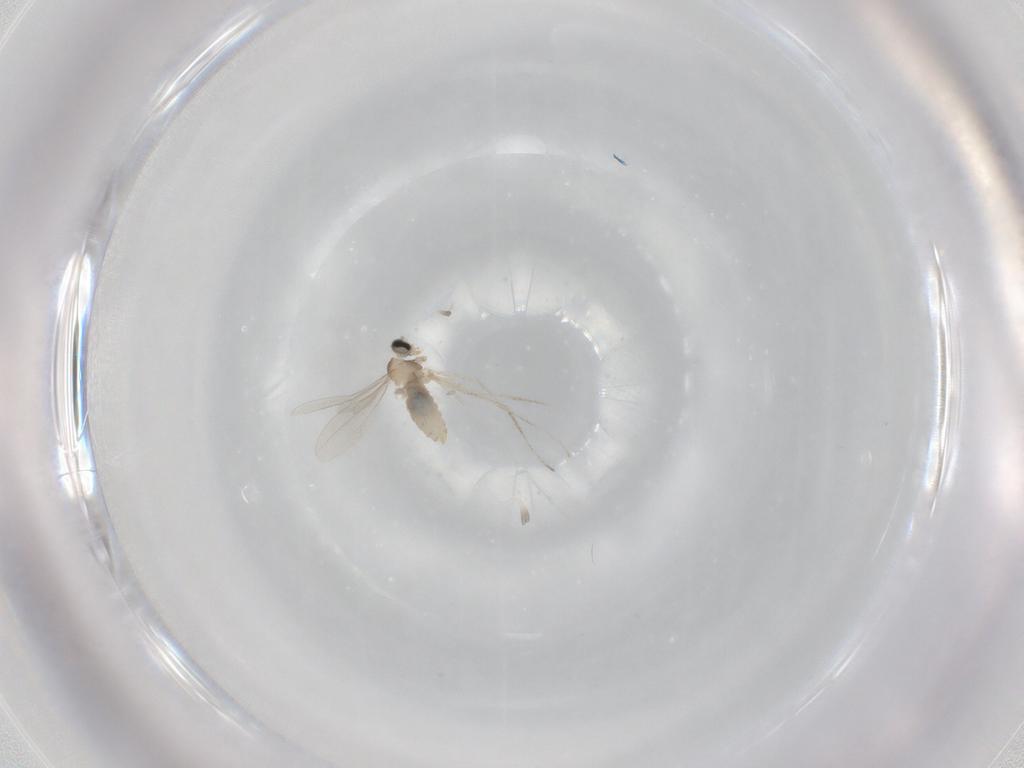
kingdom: Animalia
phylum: Arthropoda
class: Insecta
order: Diptera
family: Cecidomyiidae
